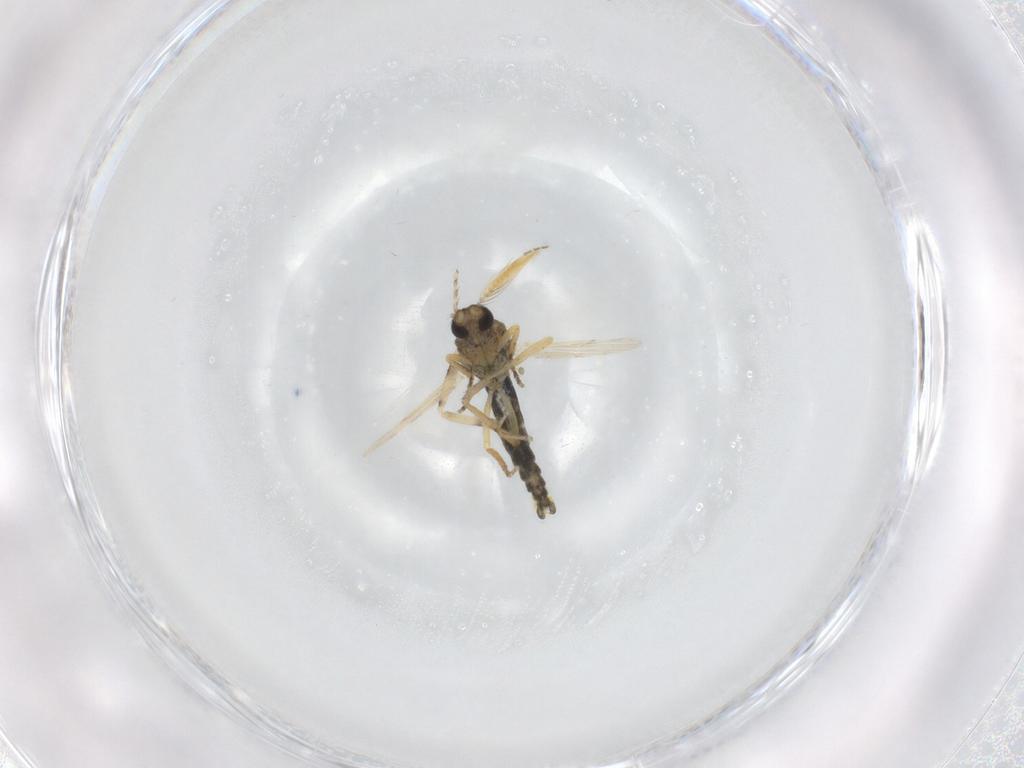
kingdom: Animalia
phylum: Arthropoda
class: Insecta
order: Diptera
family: Ceratopogonidae
